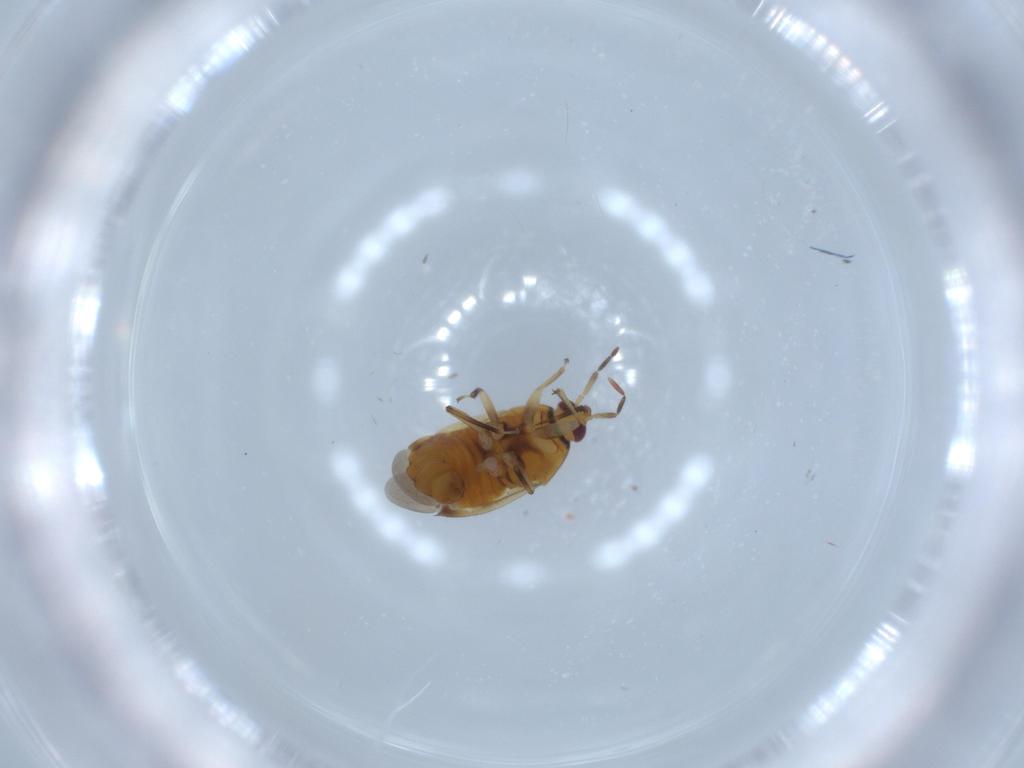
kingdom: Animalia
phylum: Arthropoda
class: Insecta
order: Hemiptera
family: Anthocoridae
